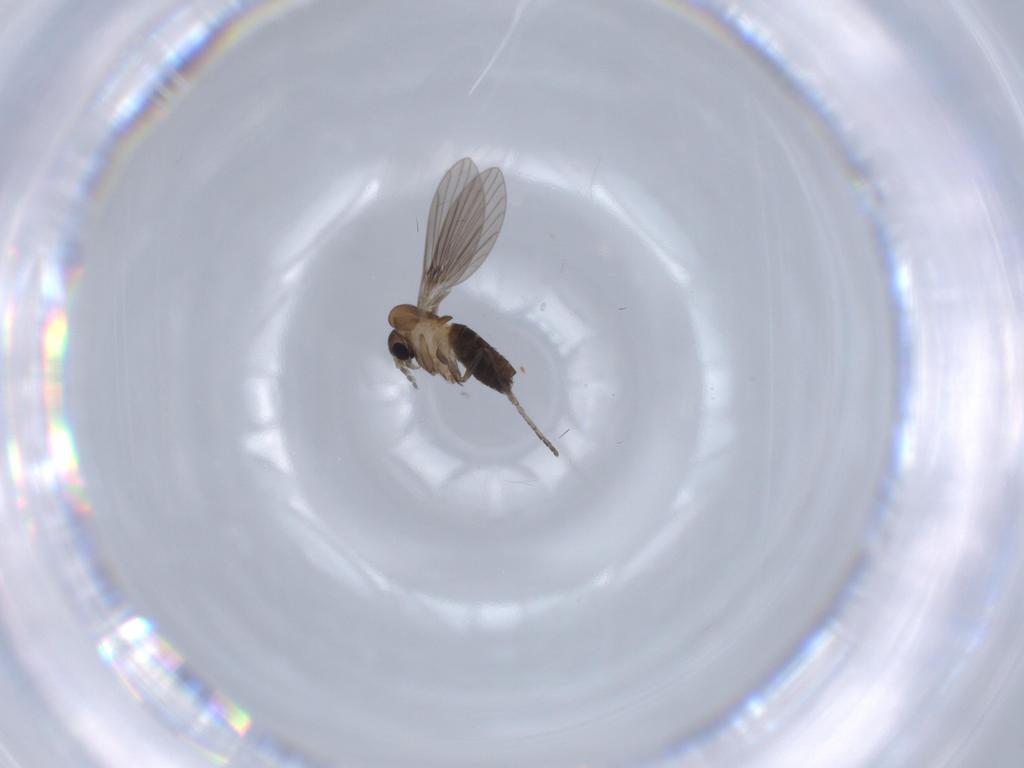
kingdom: Animalia
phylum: Arthropoda
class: Insecta
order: Diptera
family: Psychodidae
